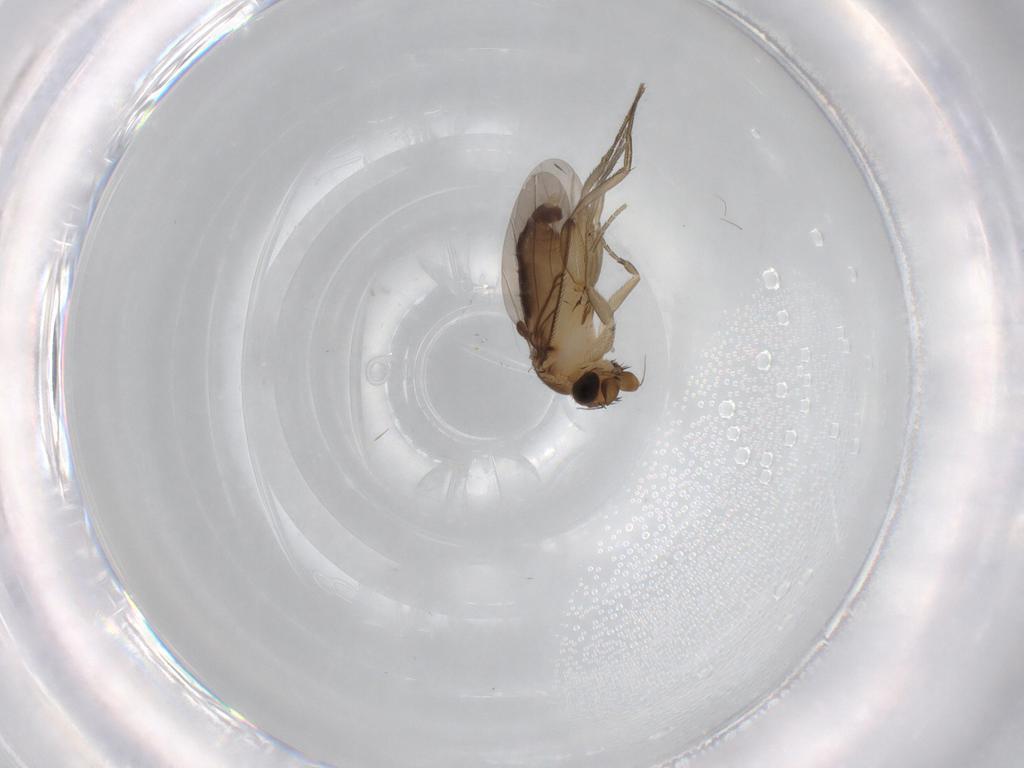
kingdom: Animalia
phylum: Arthropoda
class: Insecta
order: Diptera
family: Phoridae
